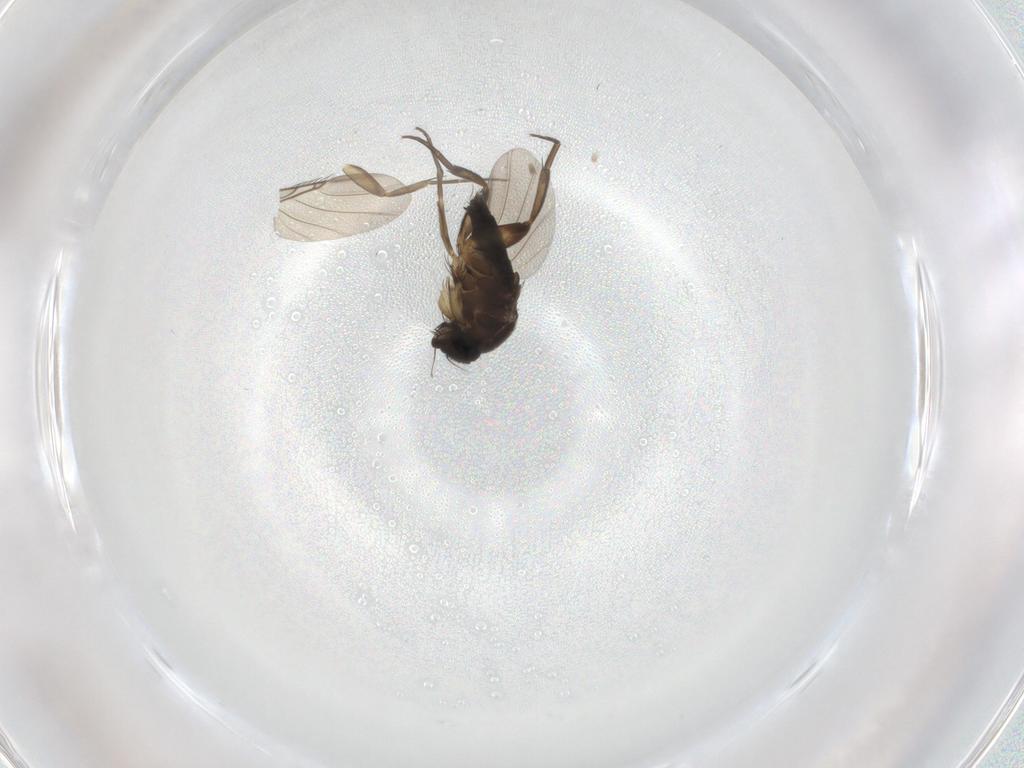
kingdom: Animalia
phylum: Arthropoda
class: Insecta
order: Diptera
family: Phoridae
